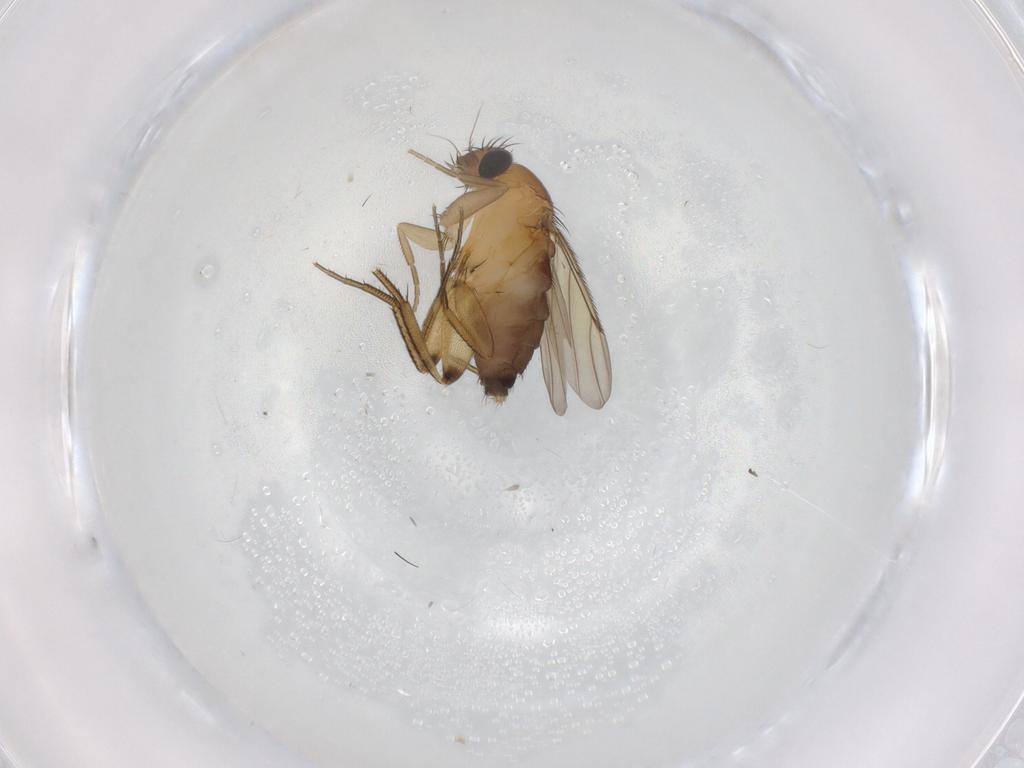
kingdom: Animalia
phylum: Arthropoda
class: Insecta
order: Diptera
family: Phoridae
